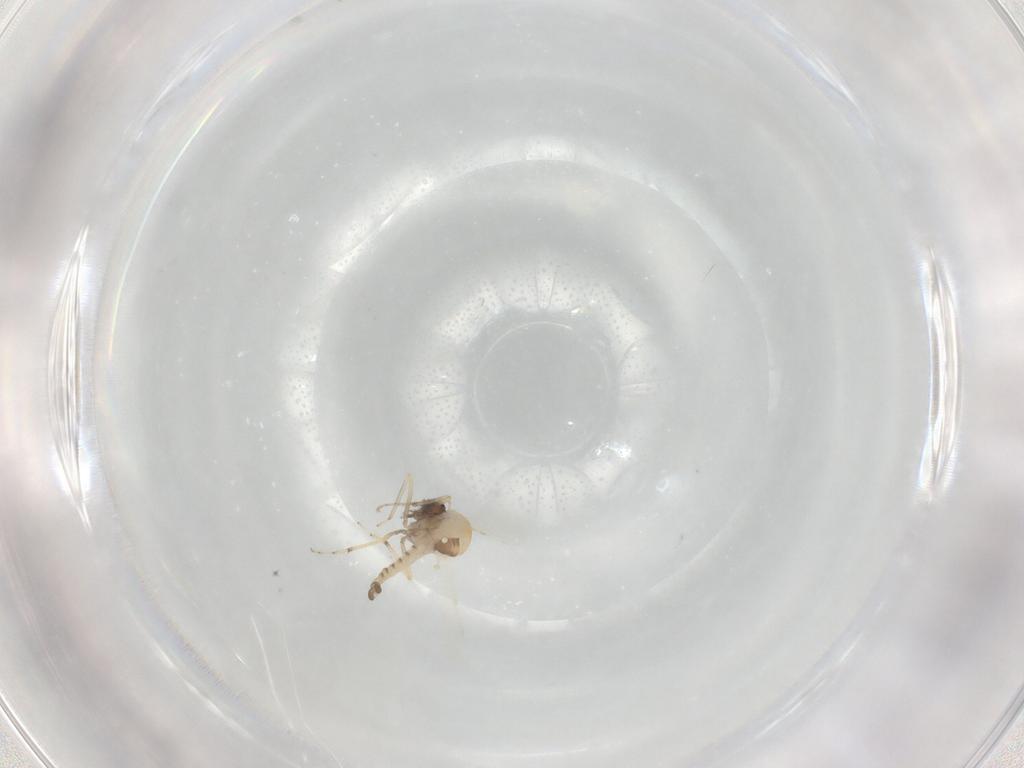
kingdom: Animalia
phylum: Arthropoda
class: Insecta
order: Diptera
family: Ceratopogonidae
